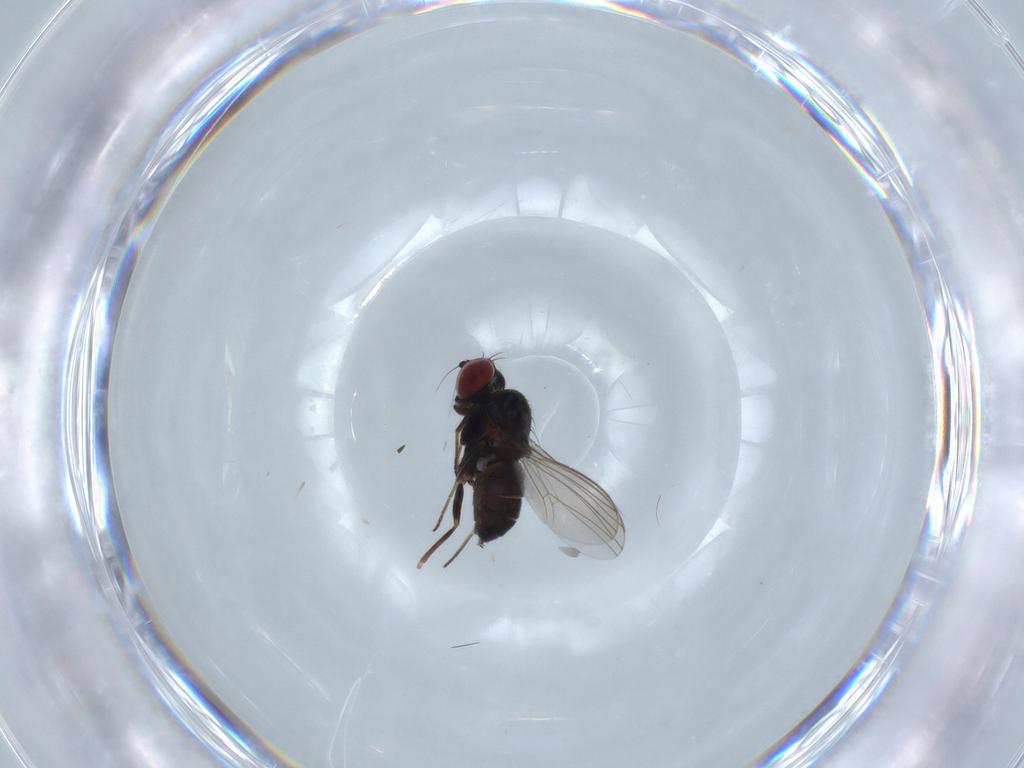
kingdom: Animalia
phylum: Arthropoda
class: Insecta
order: Diptera
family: Dolichopodidae
